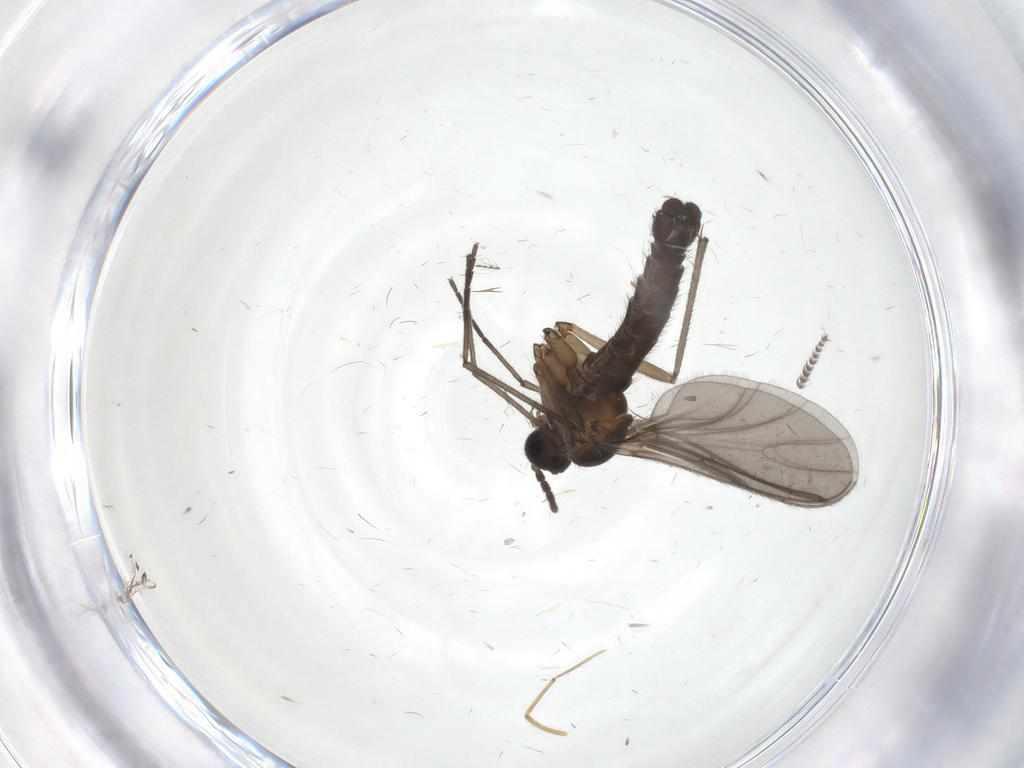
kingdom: Animalia
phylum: Arthropoda
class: Insecta
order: Diptera
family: Sciaridae
